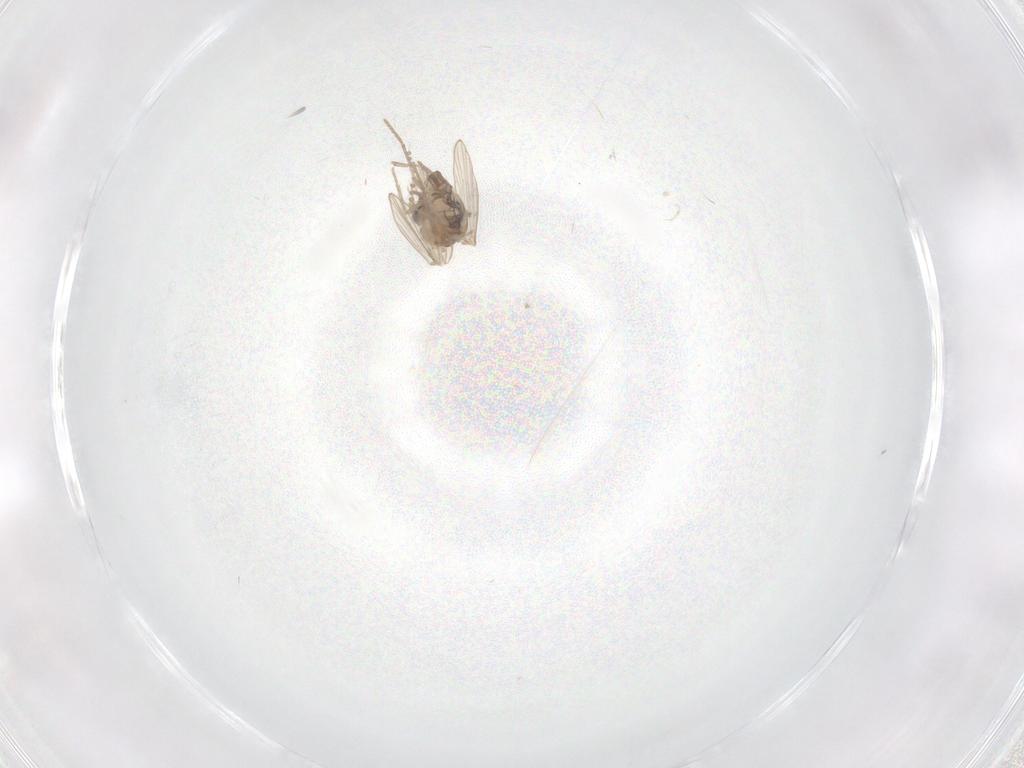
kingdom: Animalia
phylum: Arthropoda
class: Insecta
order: Diptera
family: Psychodidae
